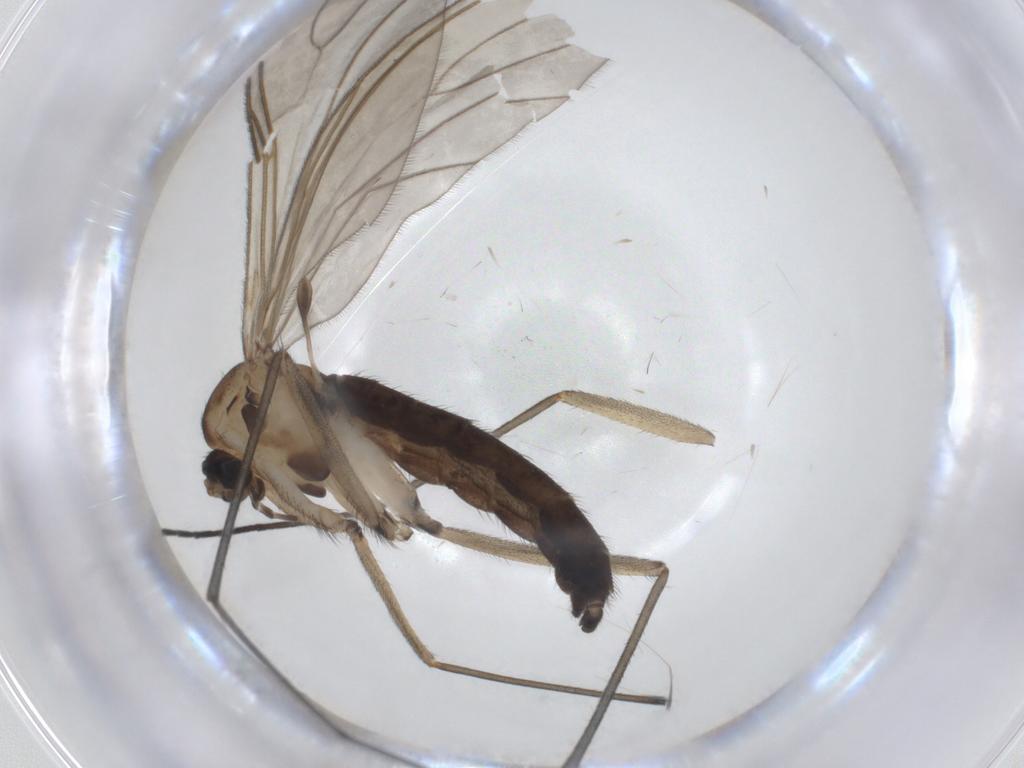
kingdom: Animalia
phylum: Arthropoda
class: Insecta
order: Diptera
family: Sciaridae
